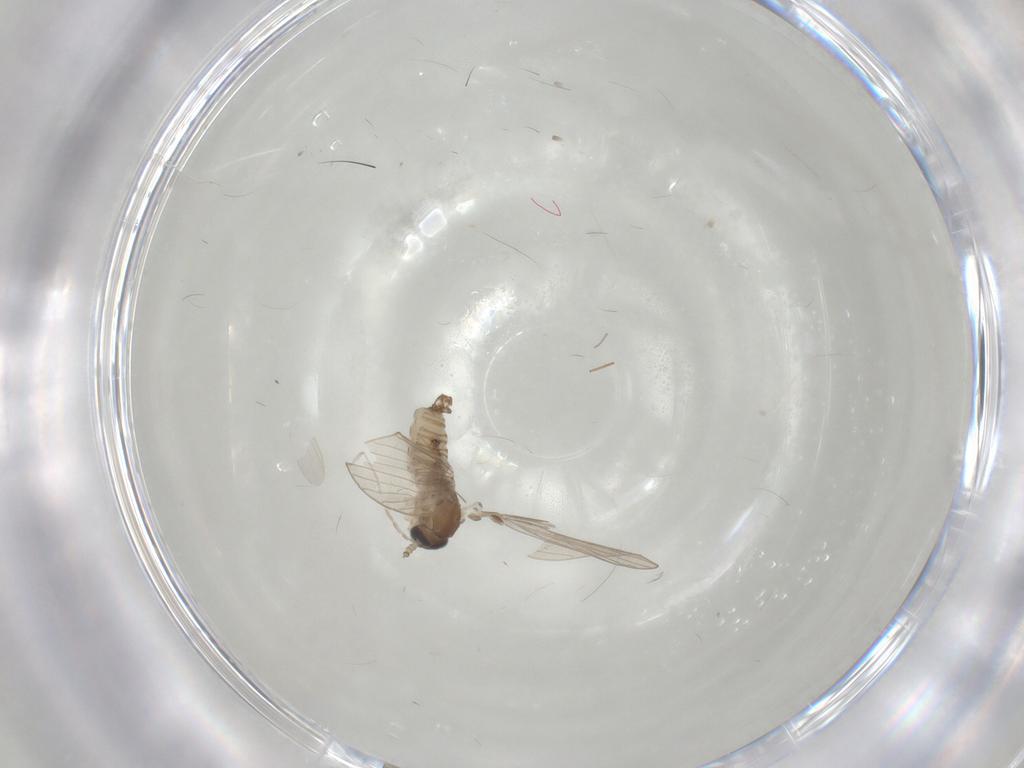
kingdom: Animalia
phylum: Arthropoda
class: Insecta
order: Diptera
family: Psychodidae
